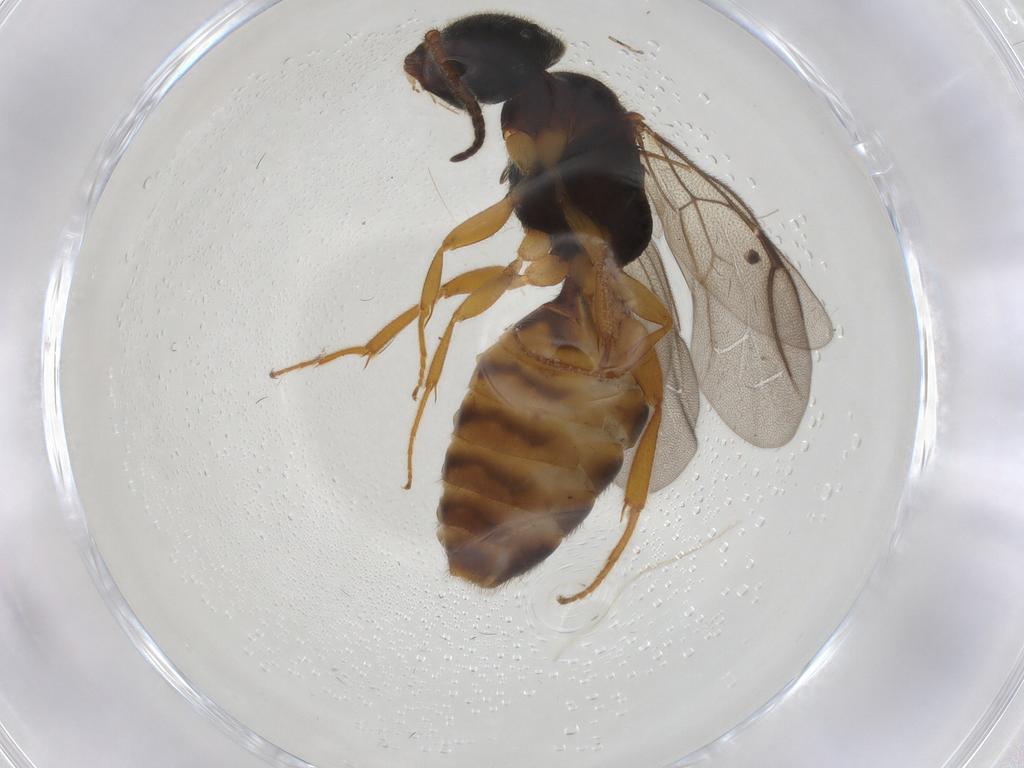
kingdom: Animalia
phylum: Arthropoda
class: Insecta
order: Hymenoptera
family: Bethylidae
